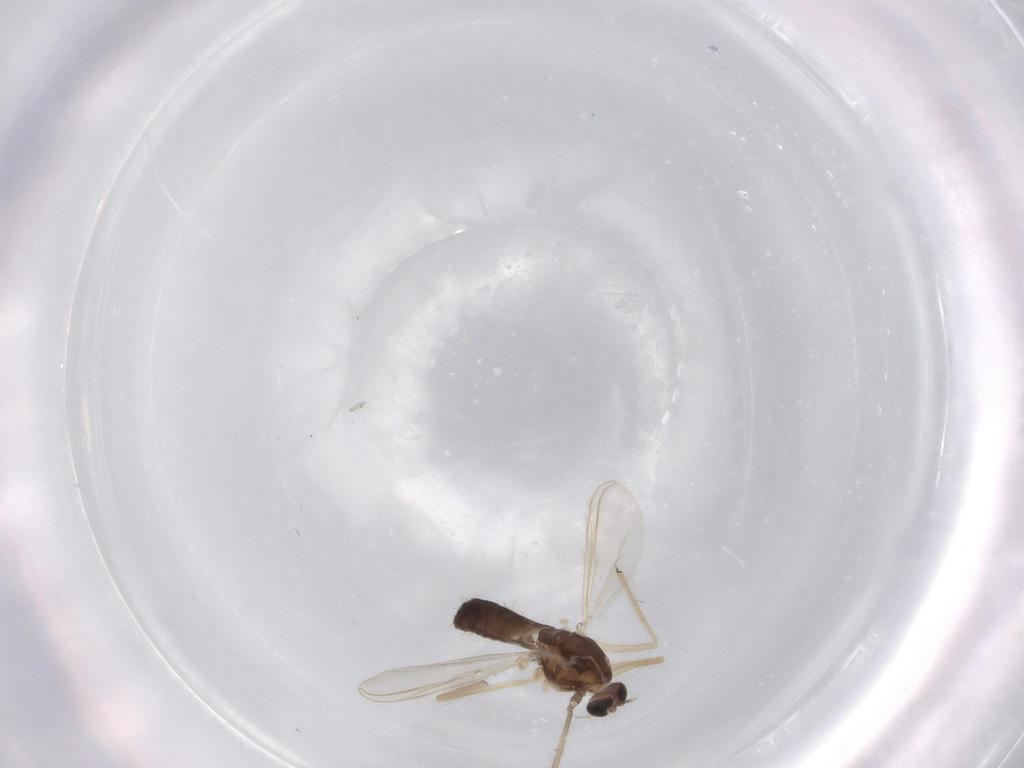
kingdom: Animalia
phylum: Arthropoda
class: Insecta
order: Diptera
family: Chironomidae
